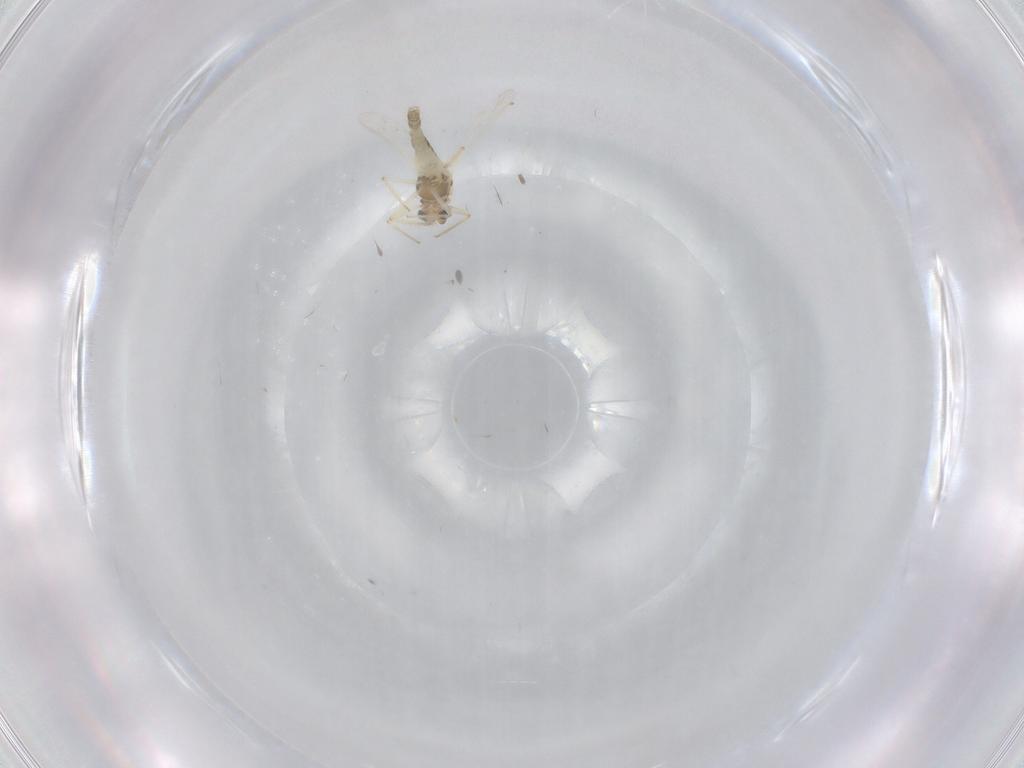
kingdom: Animalia
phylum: Arthropoda
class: Insecta
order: Diptera
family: Chironomidae
